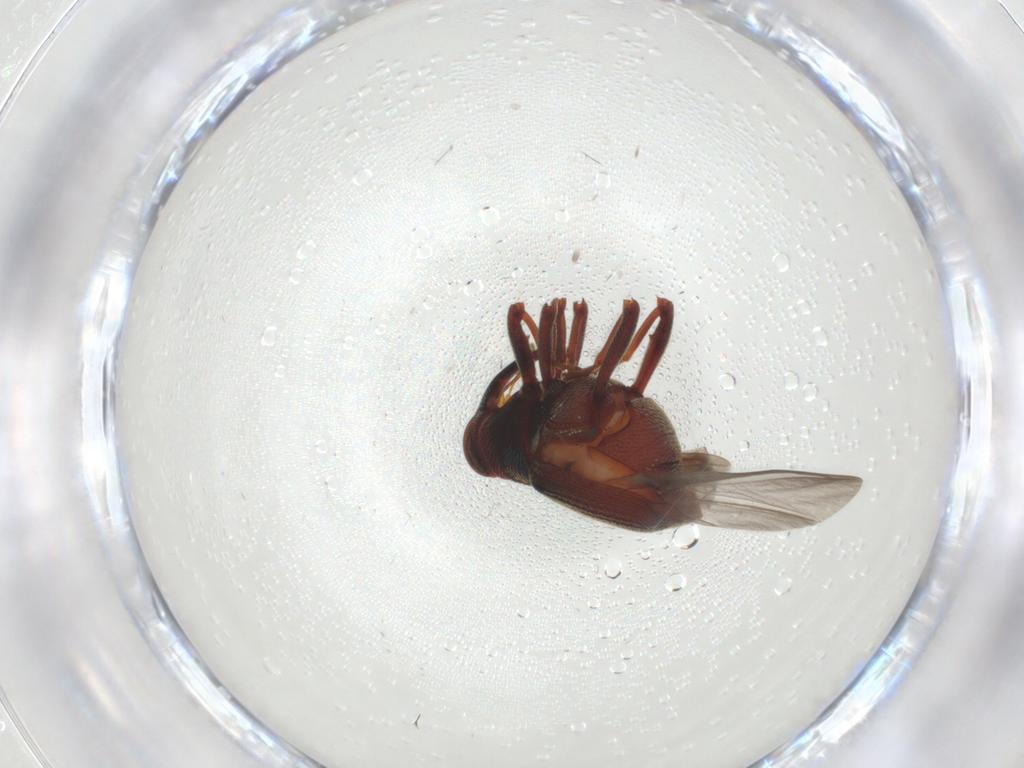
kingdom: Animalia
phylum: Arthropoda
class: Insecta
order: Coleoptera
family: Curculionidae
